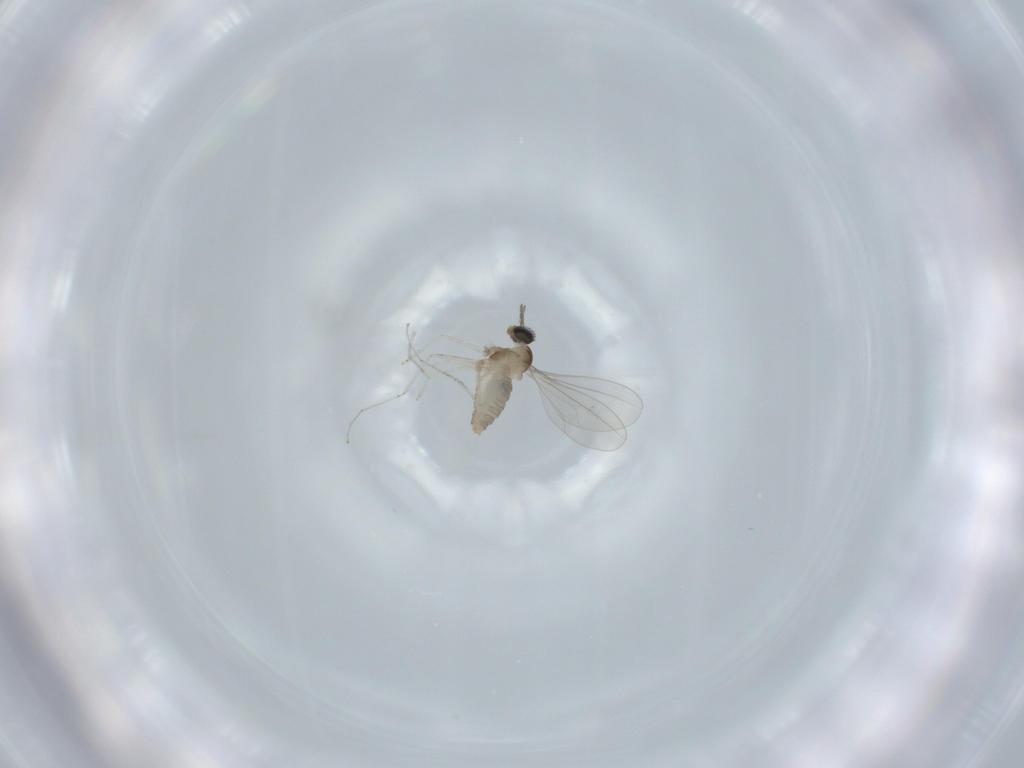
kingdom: Animalia
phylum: Arthropoda
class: Insecta
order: Diptera
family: Cecidomyiidae
